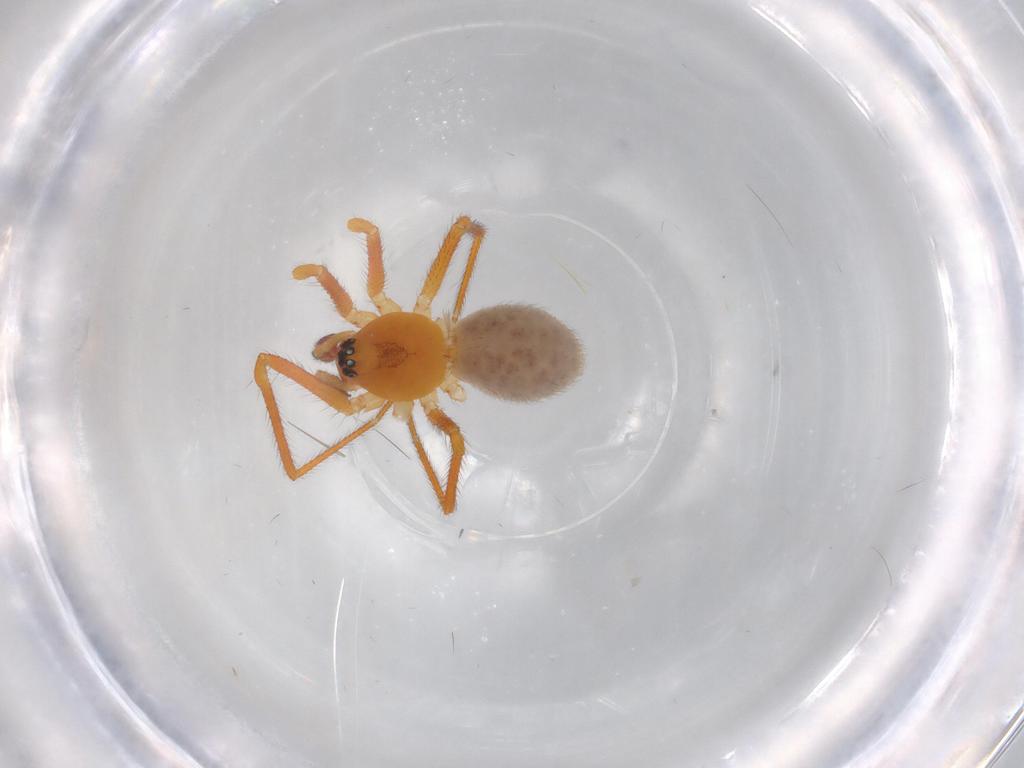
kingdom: Animalia
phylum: Arthropoda
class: Arachnida
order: Araneae
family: Linyphiidae
